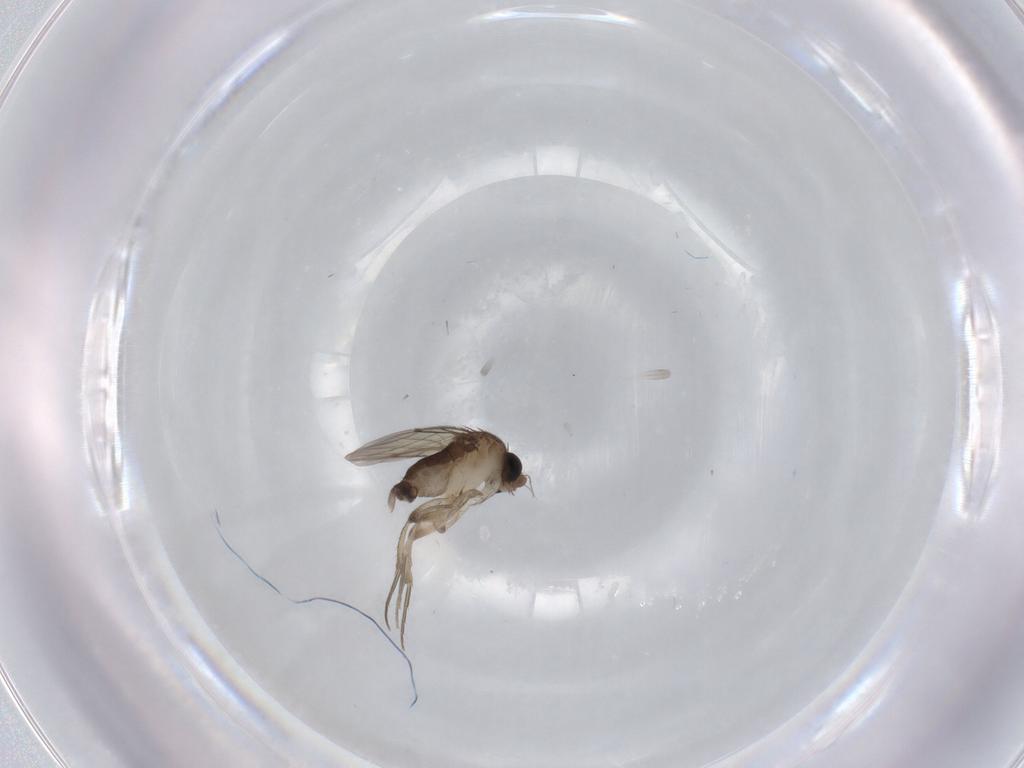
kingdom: Animalia
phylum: Arthropoda
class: Insecta
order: Diptera
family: Phoridae
